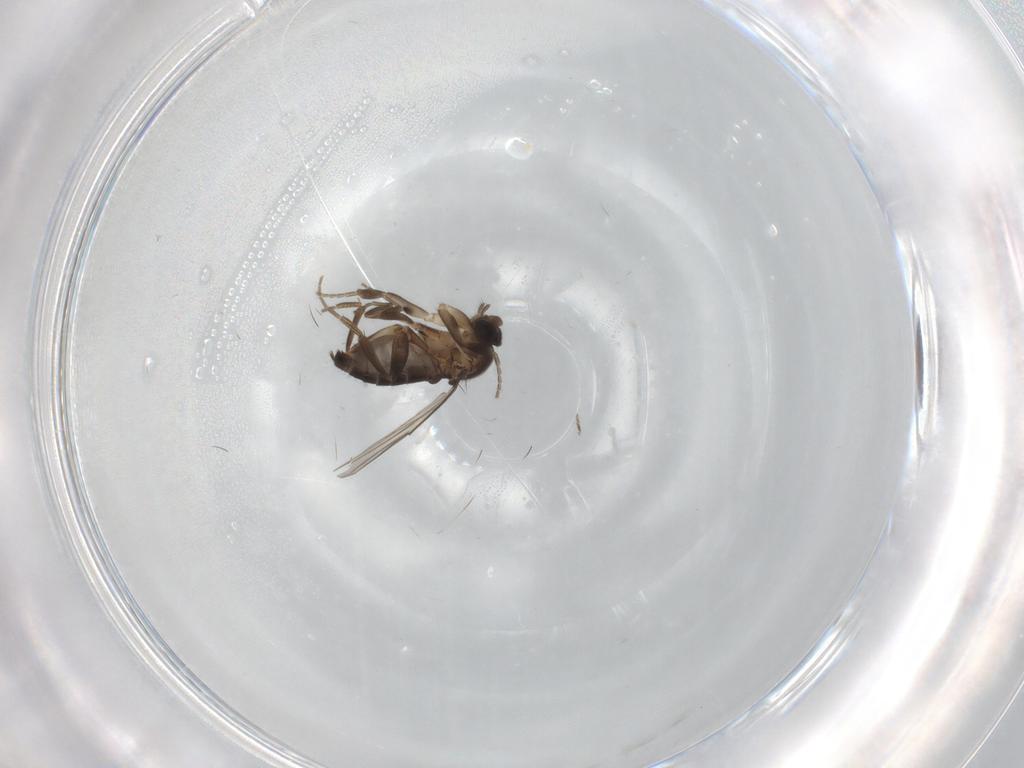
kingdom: Animalia
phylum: Arthropoda
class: Insecta
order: Diptera
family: Phoridae
